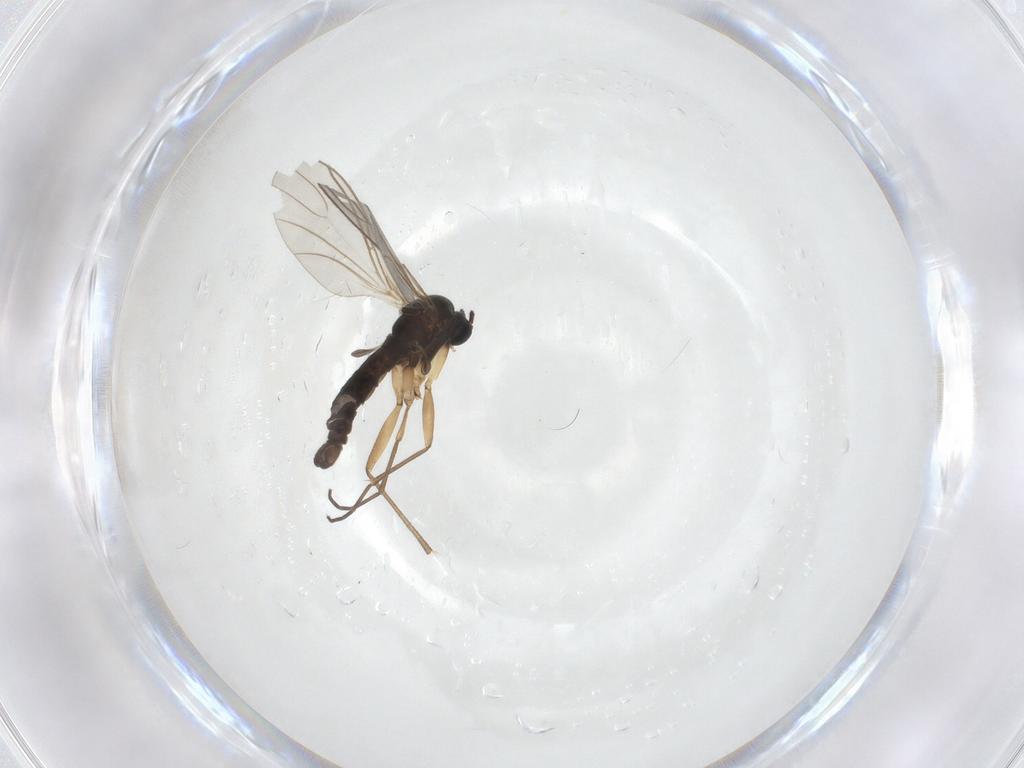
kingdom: Animalia
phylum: Arthropoda
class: Insecta
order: Diptera
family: Sciaridae
